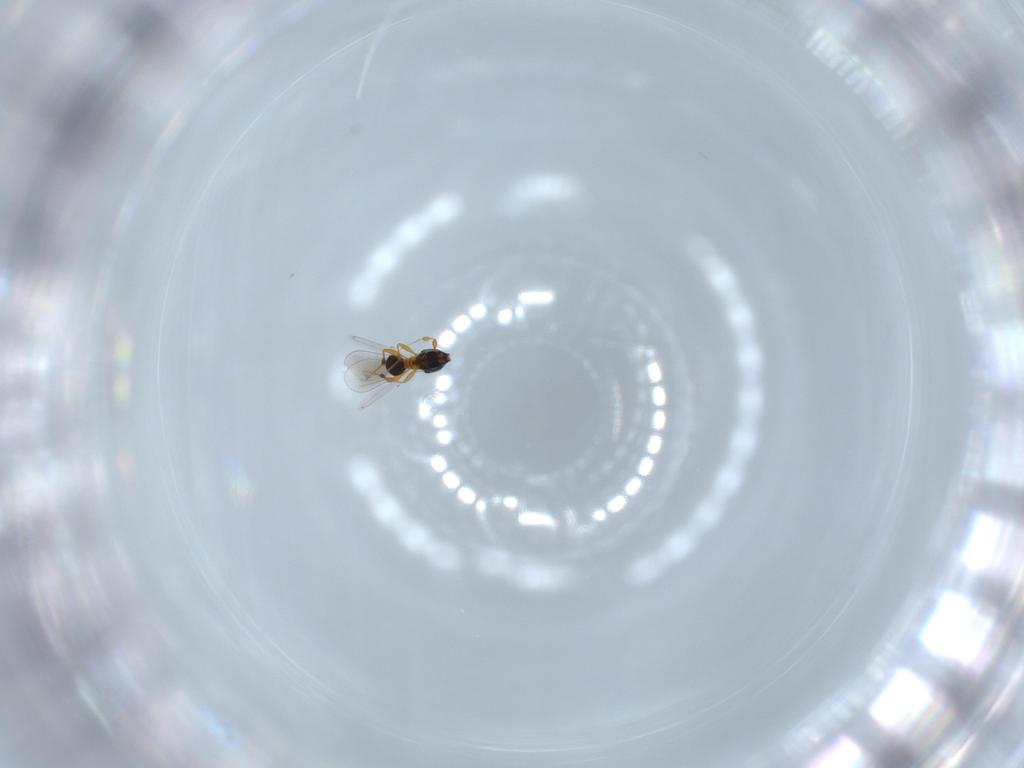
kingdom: Animalia
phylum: Arthropoda
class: Insecta
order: Hymenoptera
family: Platygastridae
